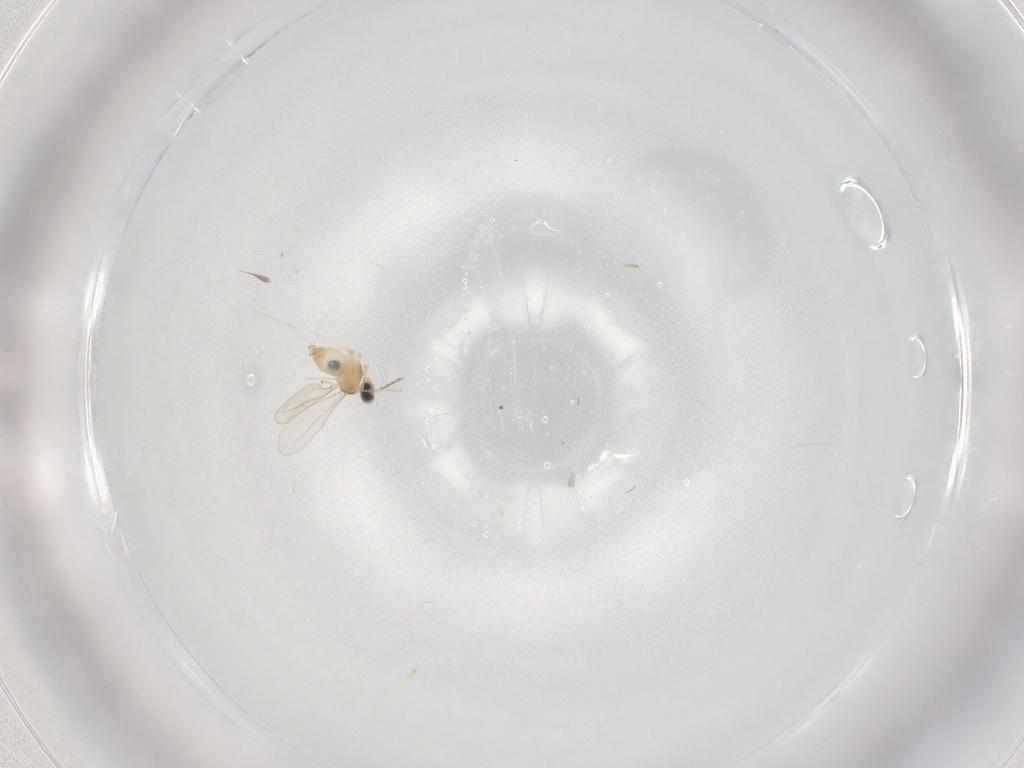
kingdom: Animalia
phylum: Arthropoda
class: Insecta
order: Diptera
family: Cecidomyiidae
